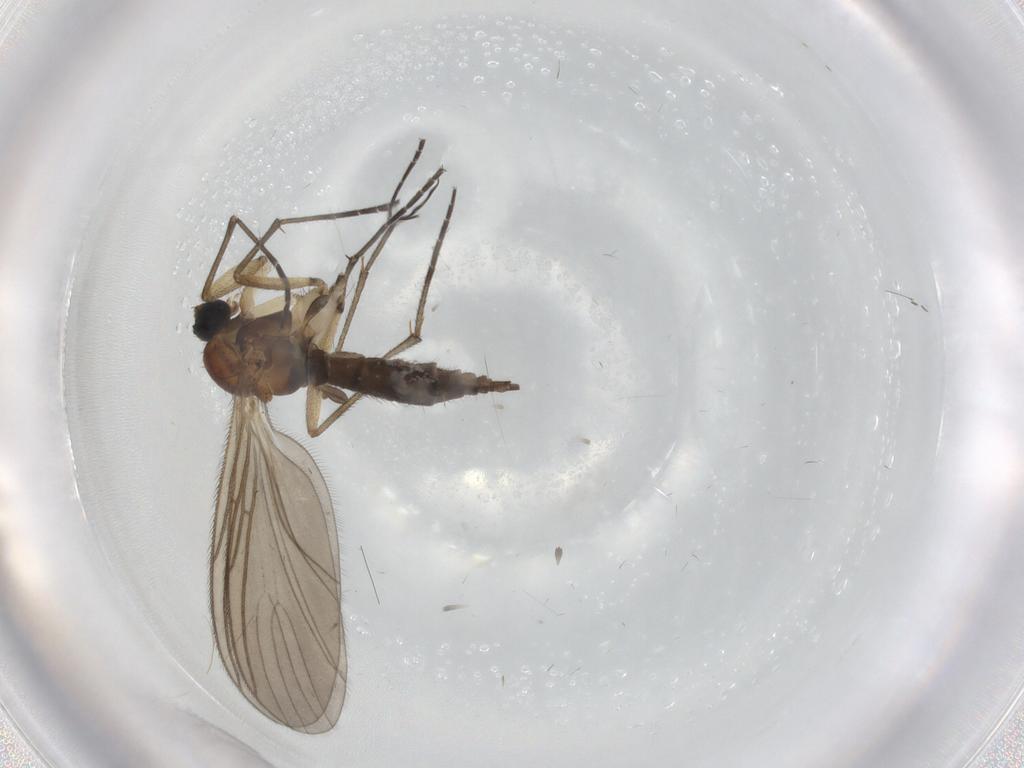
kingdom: Animalia
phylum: Arthropoda
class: Insecta
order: Diptera
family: Sciaridae
